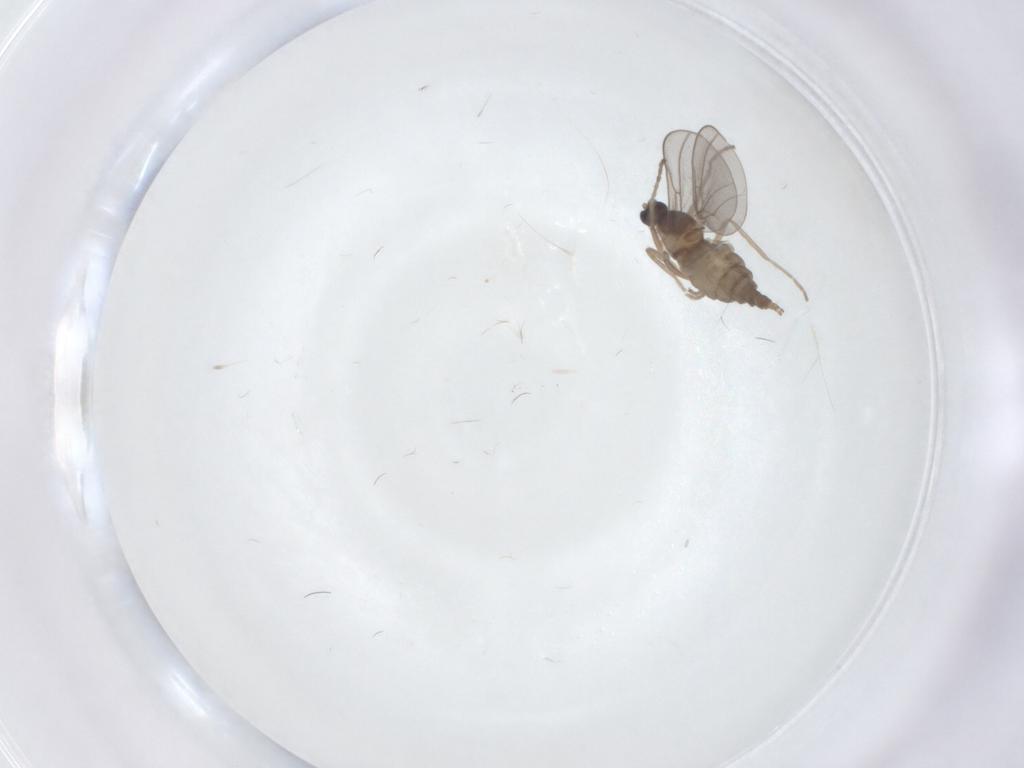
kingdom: Animalia
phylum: Arthropoda
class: Insecta
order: Diptera
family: Cecidomyiidae
